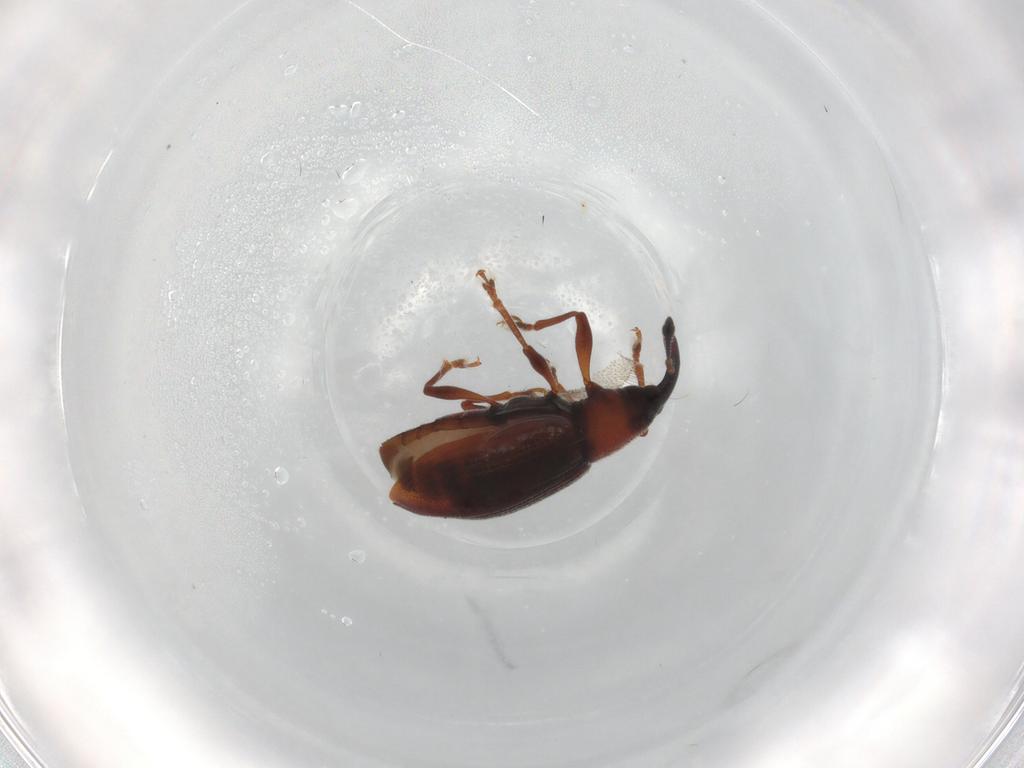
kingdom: Animalia
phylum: Arthropoda
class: Insecta
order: Coleoptera
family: Curculionidae
